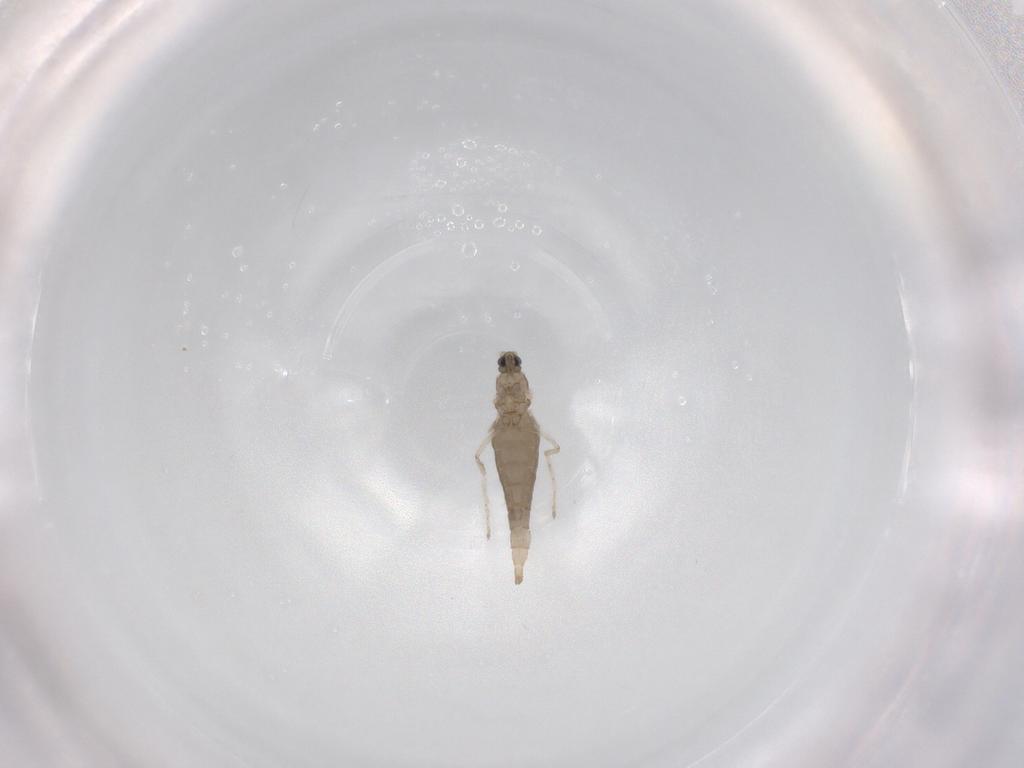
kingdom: Animalia
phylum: Arthropoda
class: Insecta
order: Diptera
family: Cecidomyiidae
